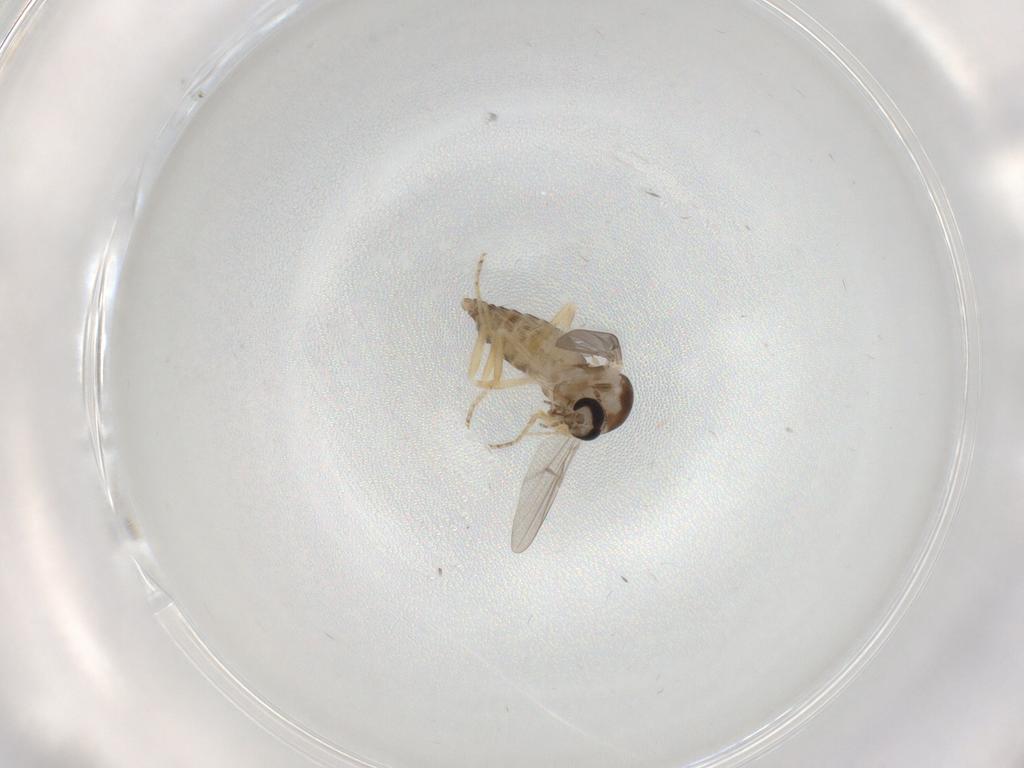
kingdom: Animalia
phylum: Arthropoda
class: Insecta
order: Diptera
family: Ceratopogonidae
